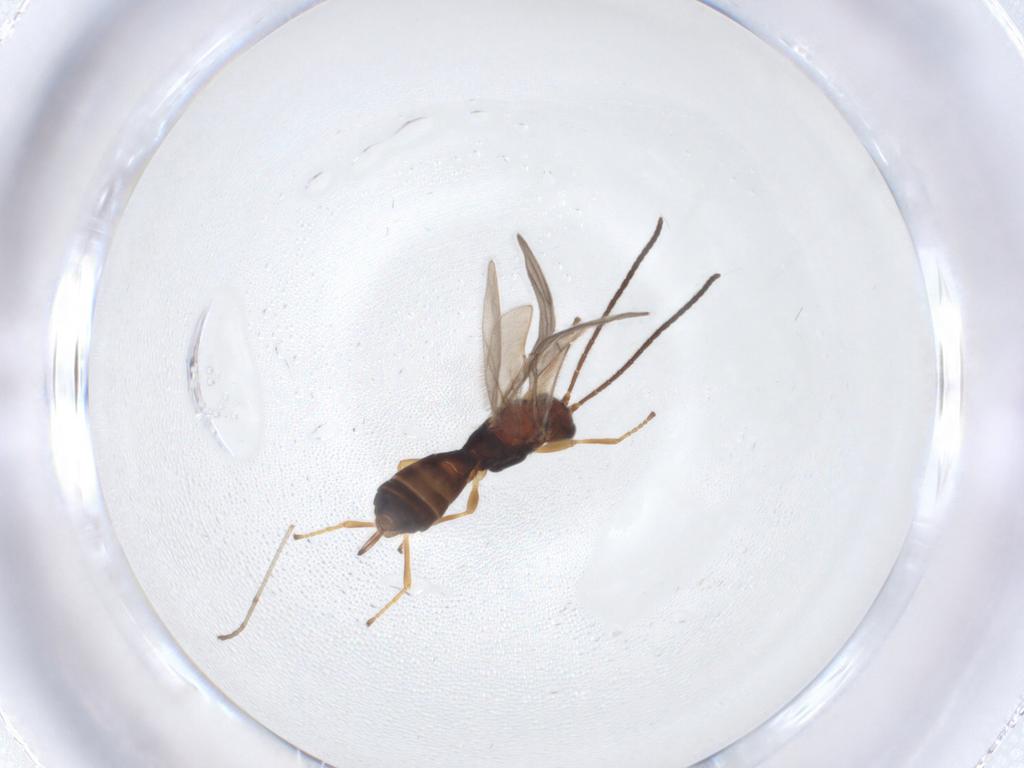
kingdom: Animalia
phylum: Arthropoda
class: Insecta
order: Hymenoptera
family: Braconidae
